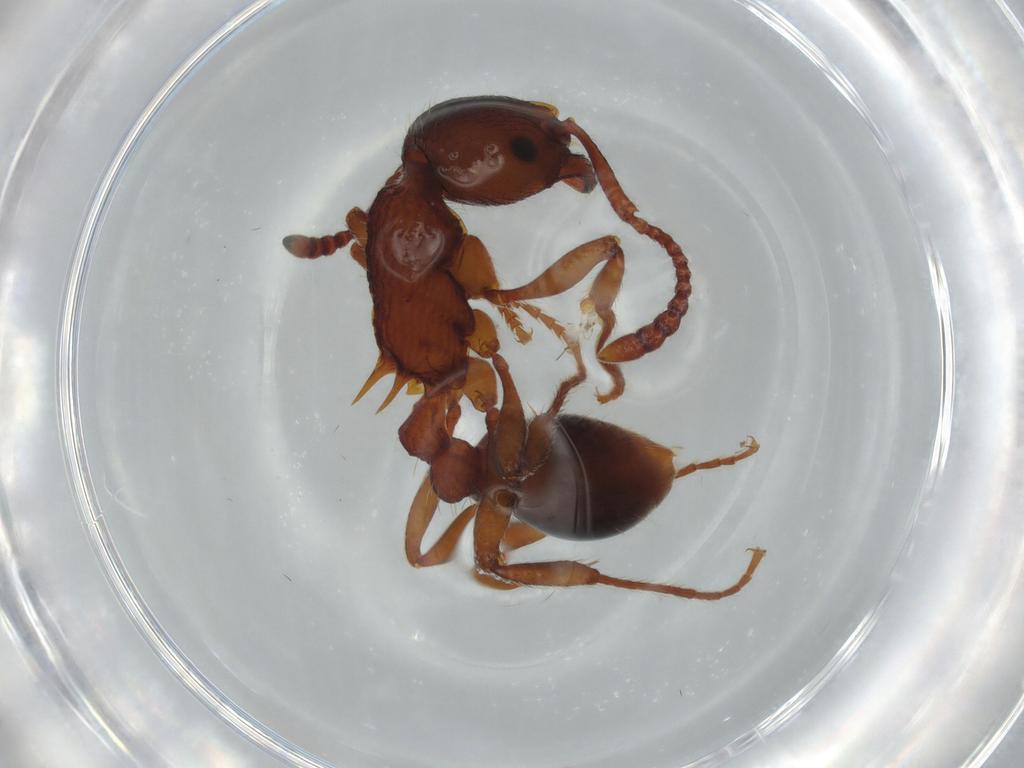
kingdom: Animalia
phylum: Arthropoda
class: Insecta
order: Hymenoptera
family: Formicidae
